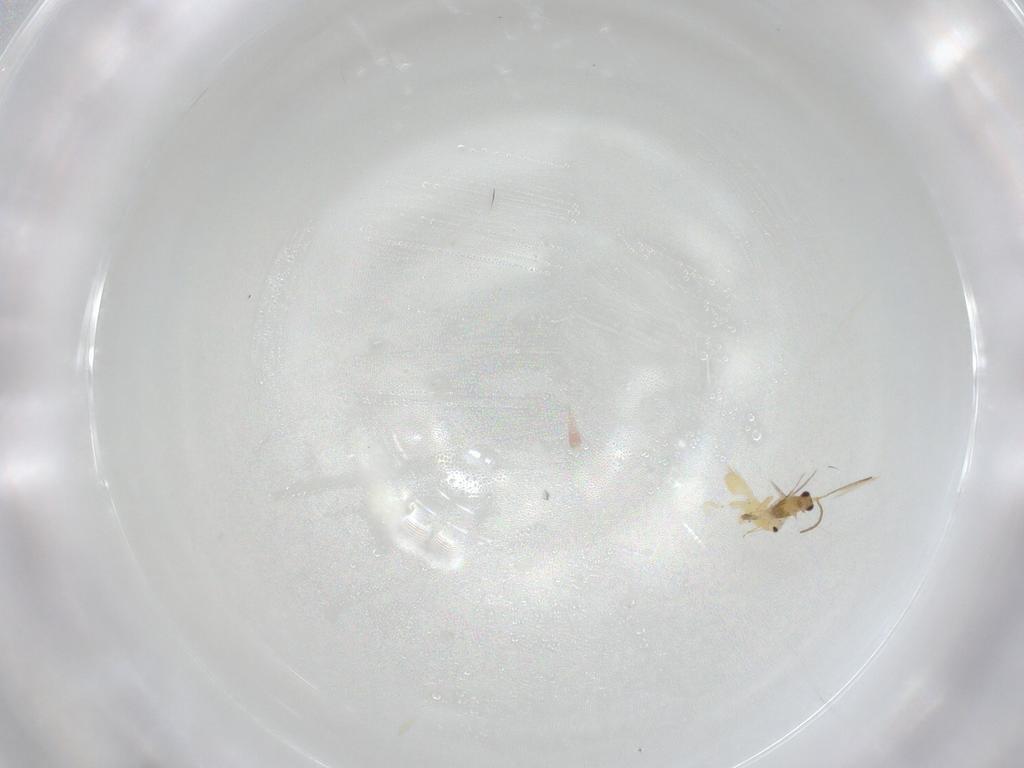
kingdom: Animalia
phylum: Arthropoda
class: Insecta
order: Hymenoptera
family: Mymaridae
